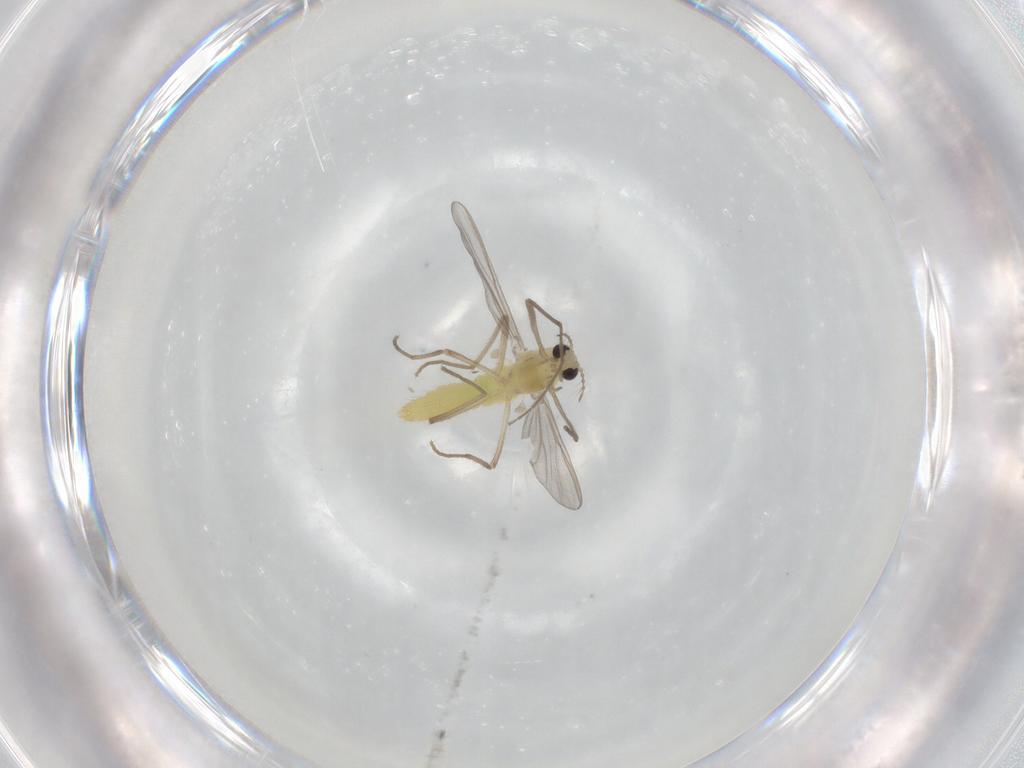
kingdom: Animalia
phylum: Arthropoda
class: Insecta
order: Diptera
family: Chironomidae
